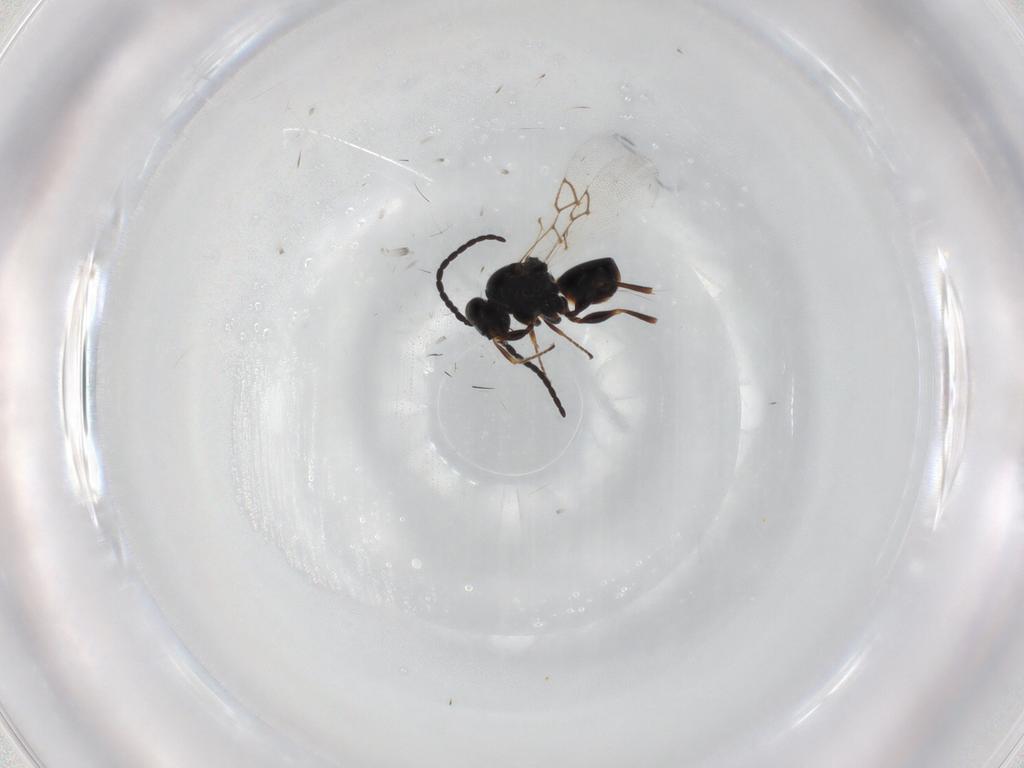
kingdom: Animalia
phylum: Arthropoda
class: Insecta
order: Hymenoptera
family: Figitidae
